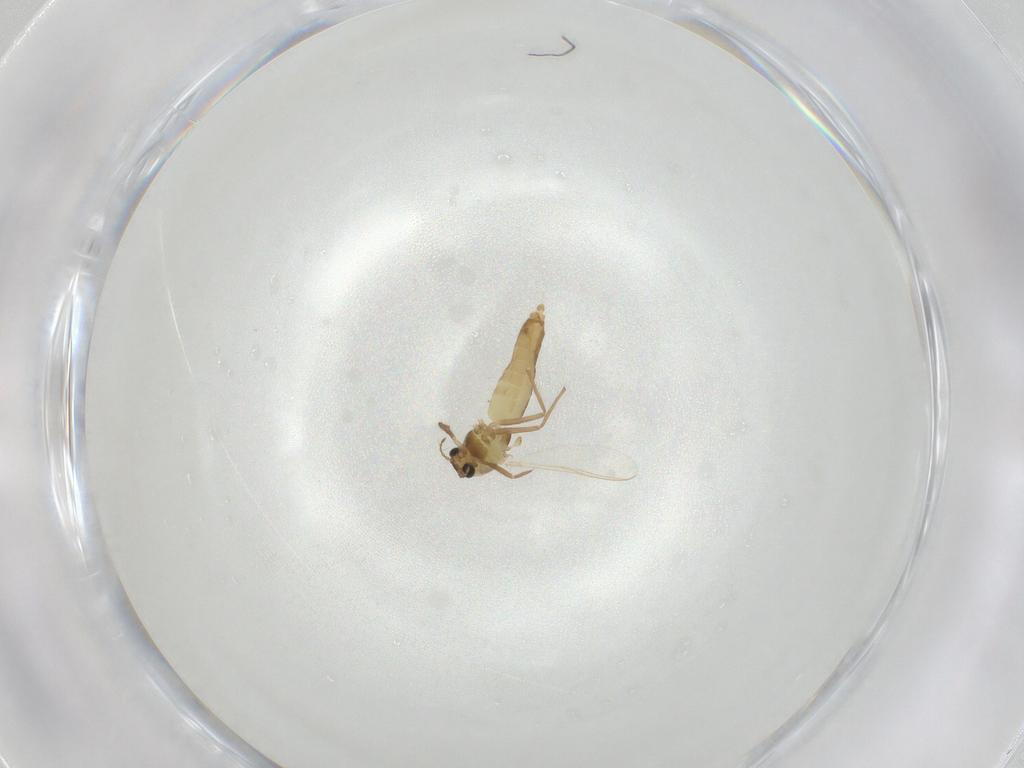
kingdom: Animalia
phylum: Arthropoda
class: Insecta
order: Diptera
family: Chironomidae
